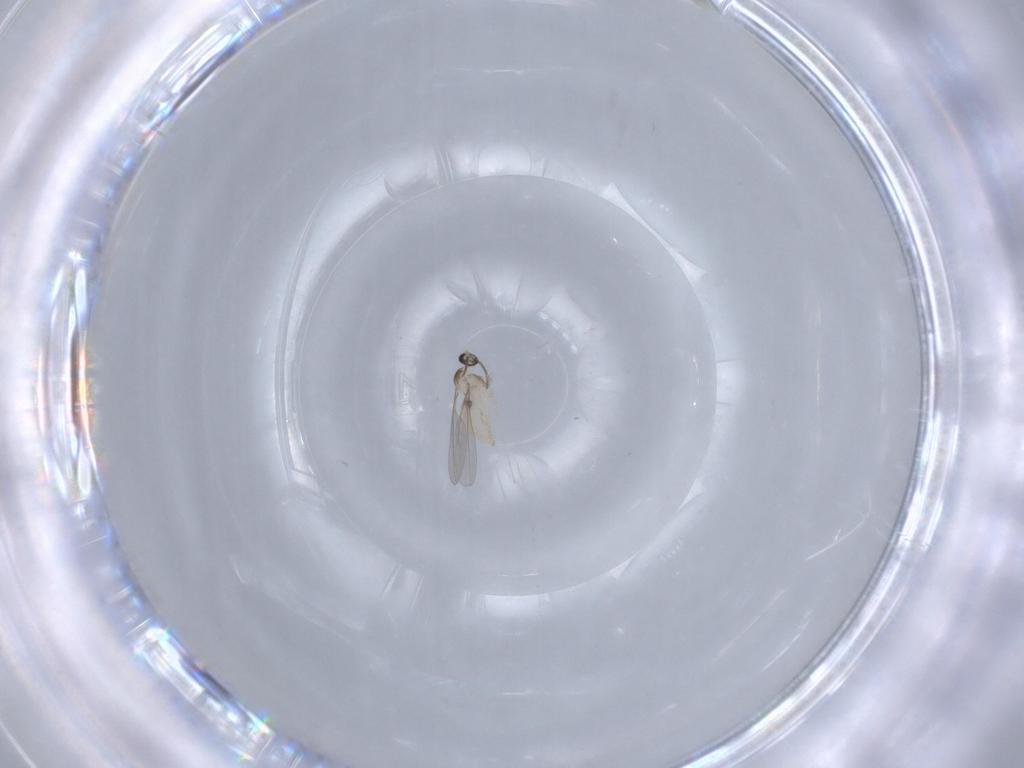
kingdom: Animalia
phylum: Arthropoda
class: Insecta
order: Diptera
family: Cecidomyiidae
